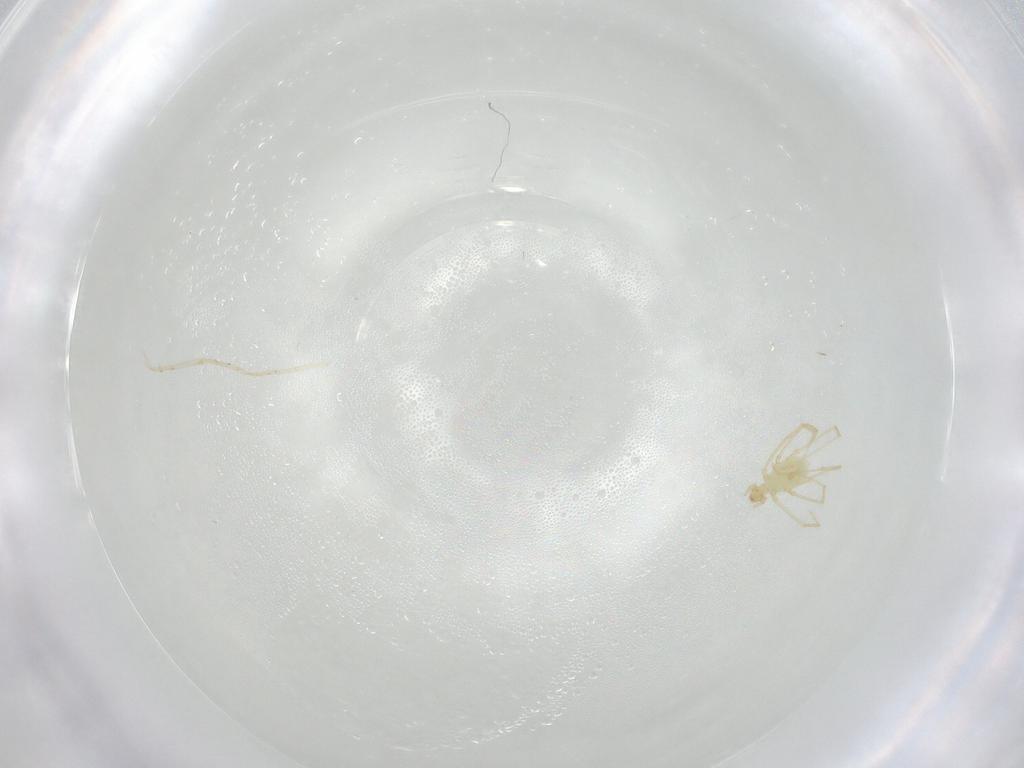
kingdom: Animalia
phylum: Arthropoda
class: Arachnida
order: Trombidiformes
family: Erythraeidae
